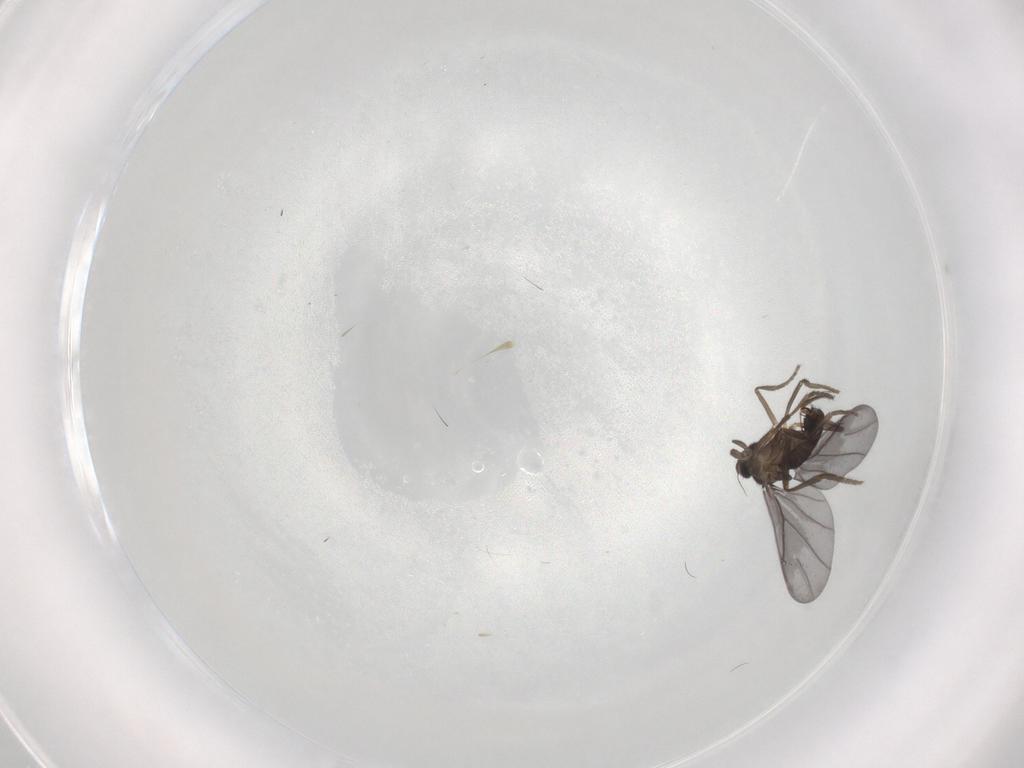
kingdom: Animalia
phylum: Arthropoda
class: Insecta
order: Diptera
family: Phoridae
